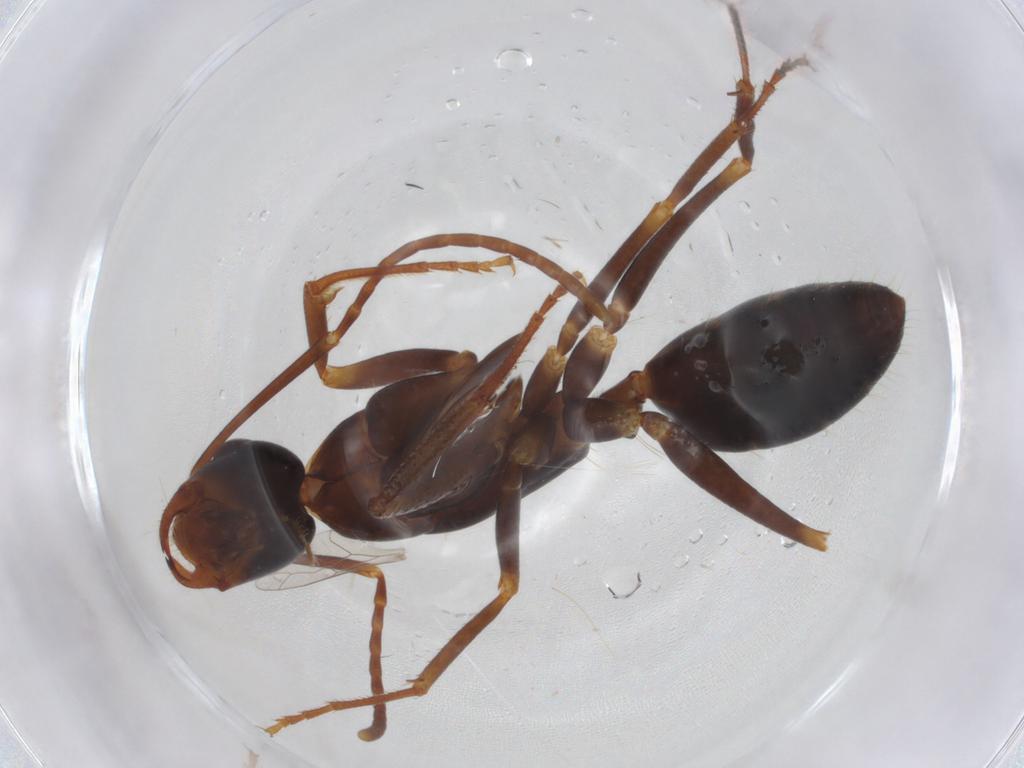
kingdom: Animalia
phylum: Arthropoda
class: Insecta
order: Hymenoptera
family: Formicidae
